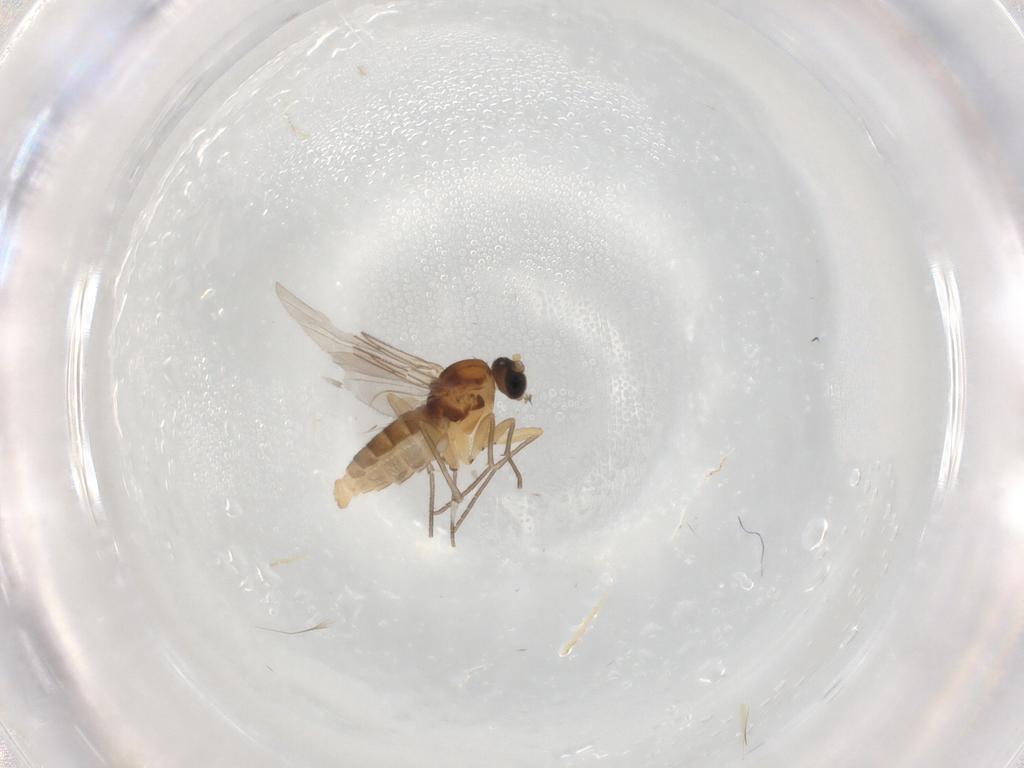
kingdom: Animalia
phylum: Arthropoda
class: Insecta
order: Diptera
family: Chironomidae
